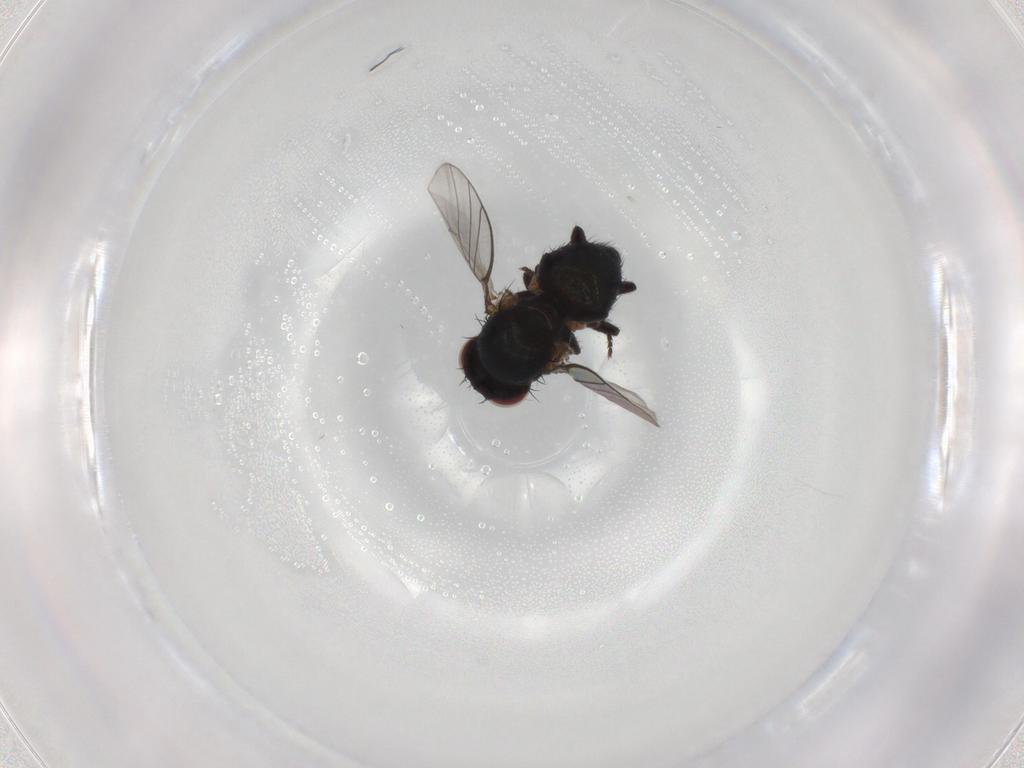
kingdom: Animalia
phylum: Arthropoda
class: Insecta
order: Diptera
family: Agromyzidae
